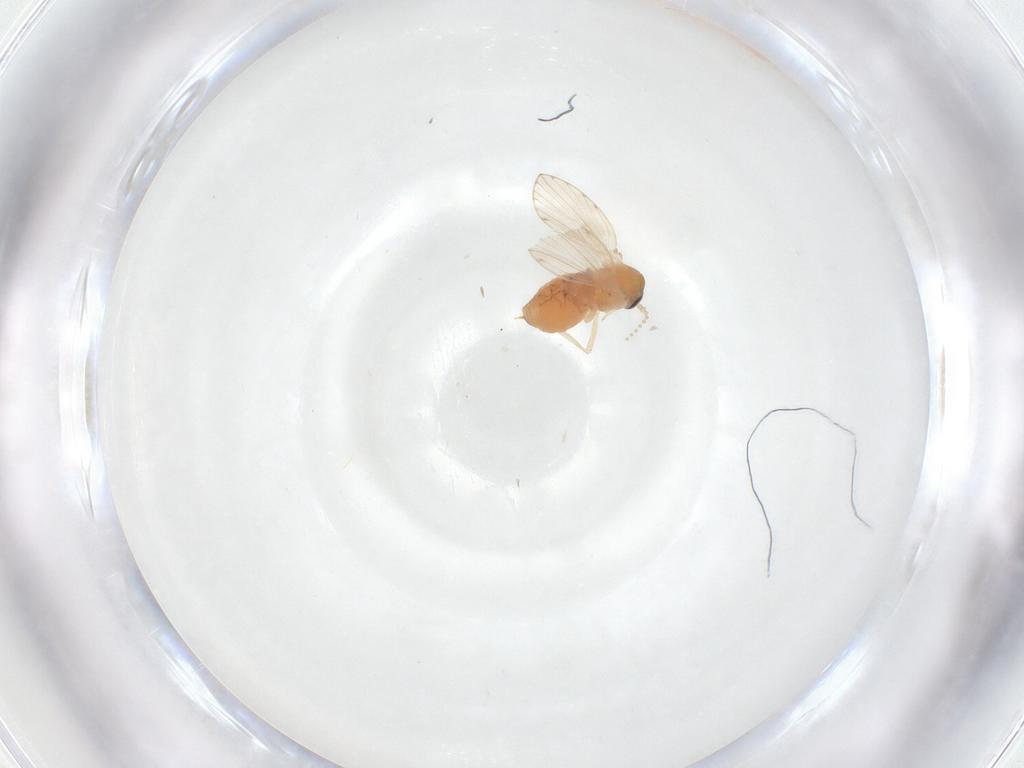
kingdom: Animalia
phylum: Arthropoda
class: Insecta
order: Diptera
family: Psychodidae
